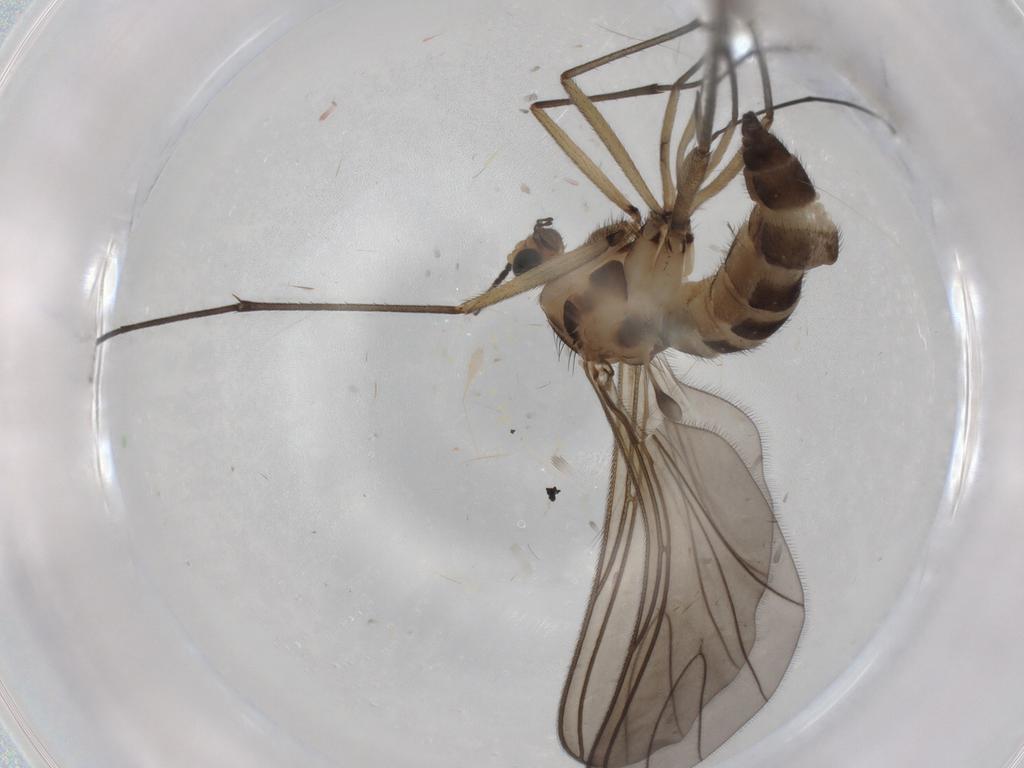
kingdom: Animalia
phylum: Arthropoda
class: Insecta
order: Diptera
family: Sciaridae
